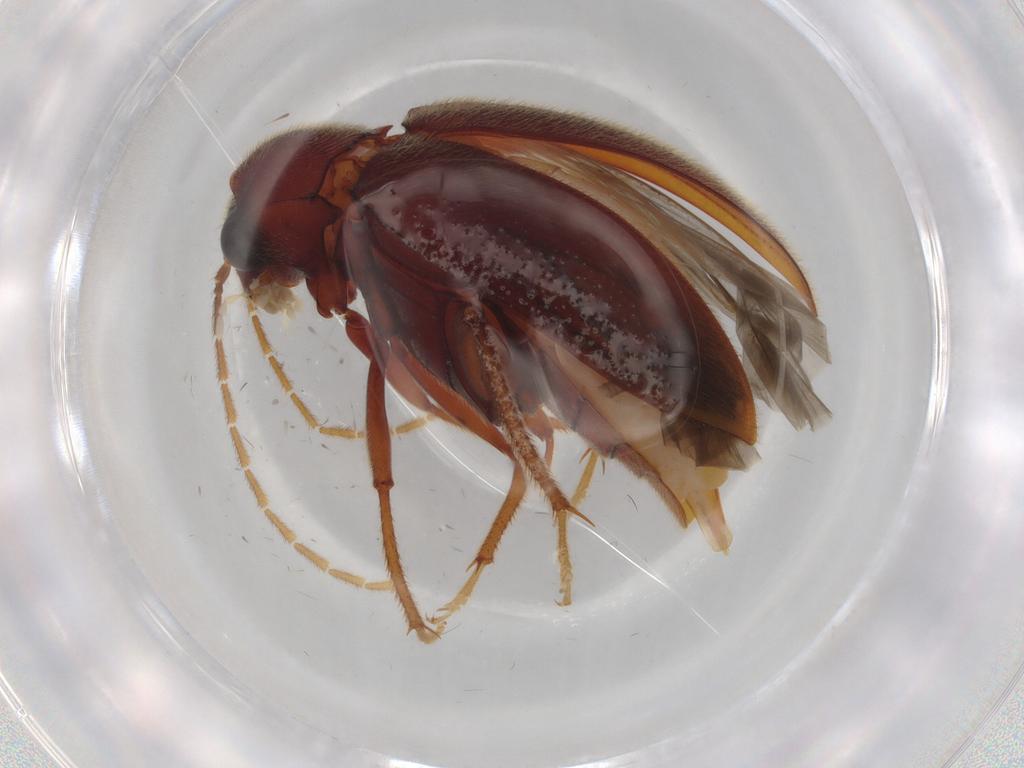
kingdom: Animalia
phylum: Arthropoda
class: Insecta
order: Coleoptera
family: Ptilodactylidae
